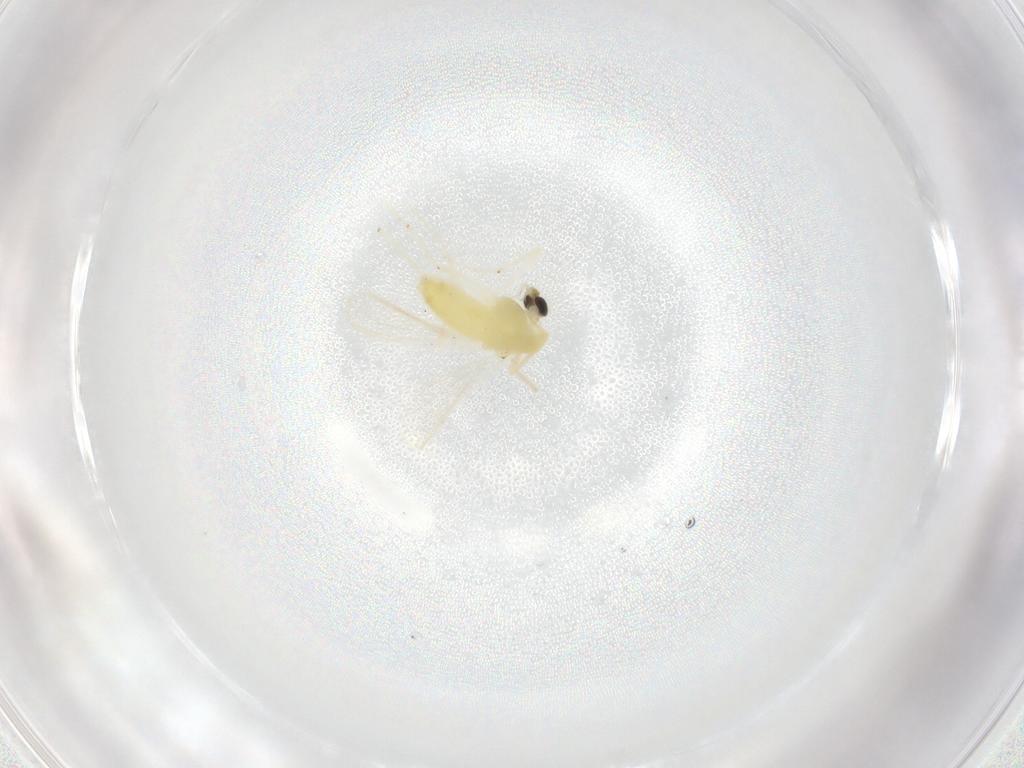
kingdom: Animalia
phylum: Arthropoda
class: Insecta
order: Diptera
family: Chironomidae
